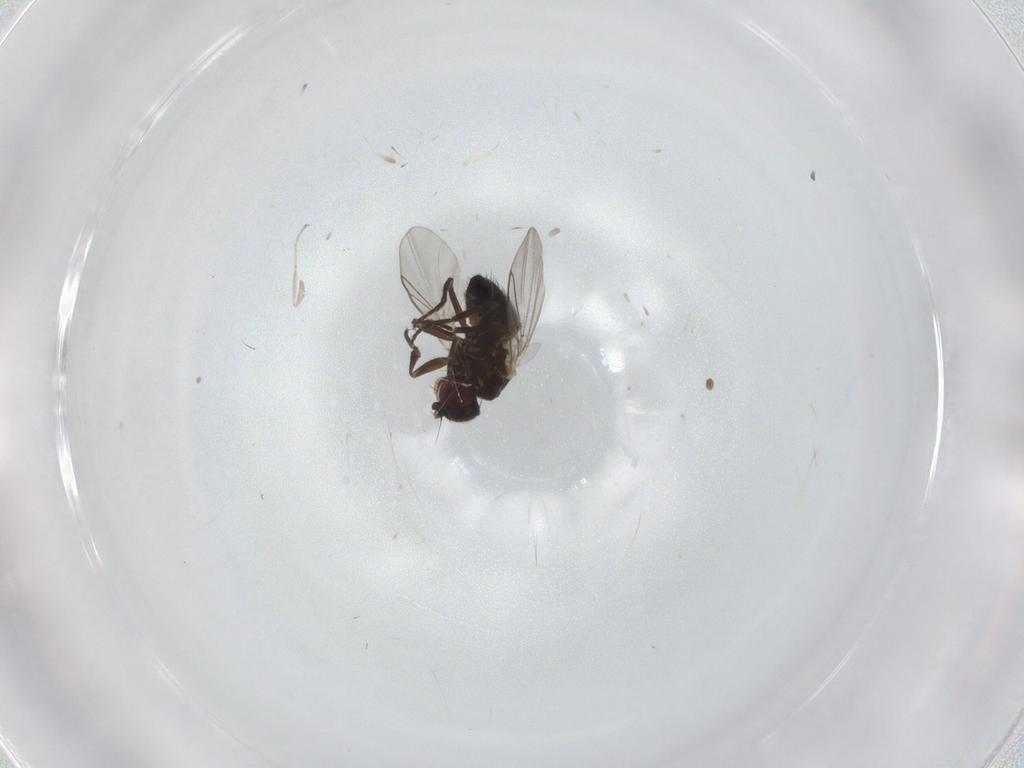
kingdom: Animalia
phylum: Arthropoda
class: Insecta
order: Diptera
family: Agromyzidae
